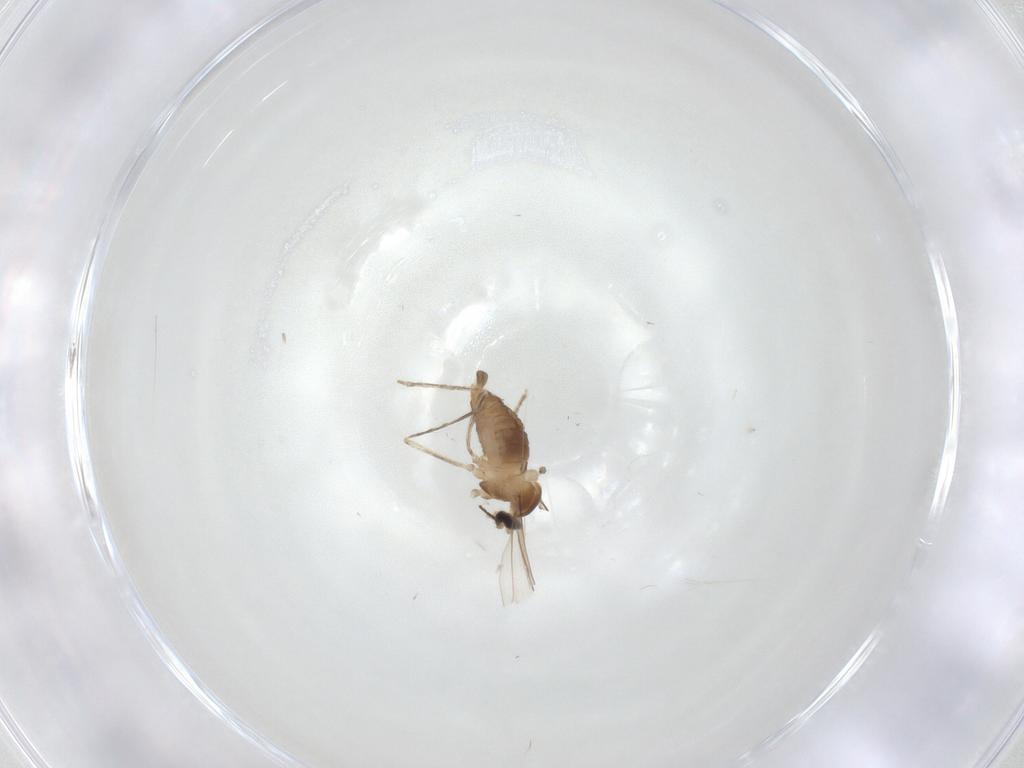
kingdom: Animalia
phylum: Arthropoda
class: Insecta
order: Diptera
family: Cecidomyiidae
